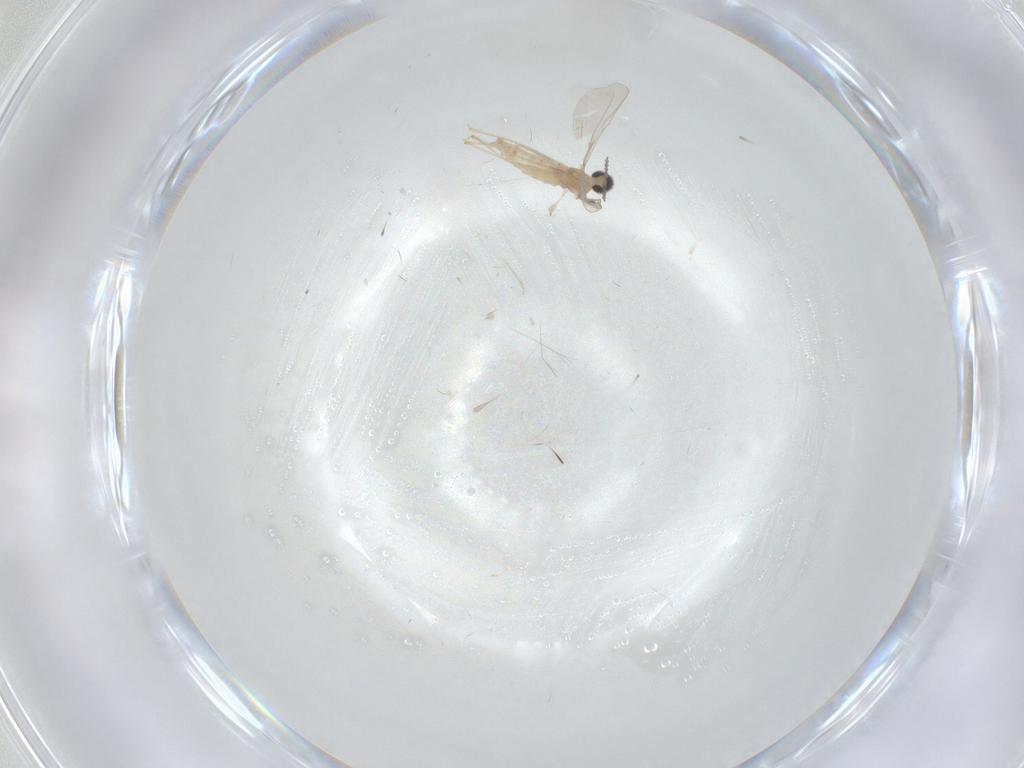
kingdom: Animalia
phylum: Arthropoda
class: Insecta
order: Diptera
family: Cecidomyiidae
